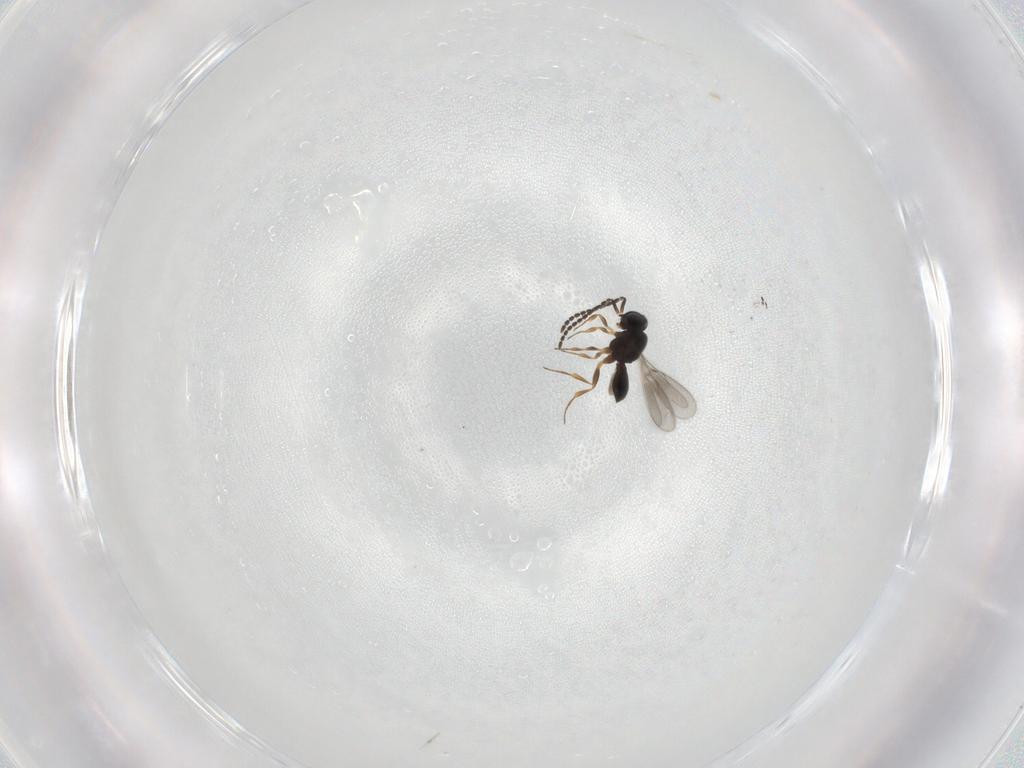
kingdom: Animalia
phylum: Arthropoda
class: Insecta
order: Hymenoptera
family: Scelionidae
